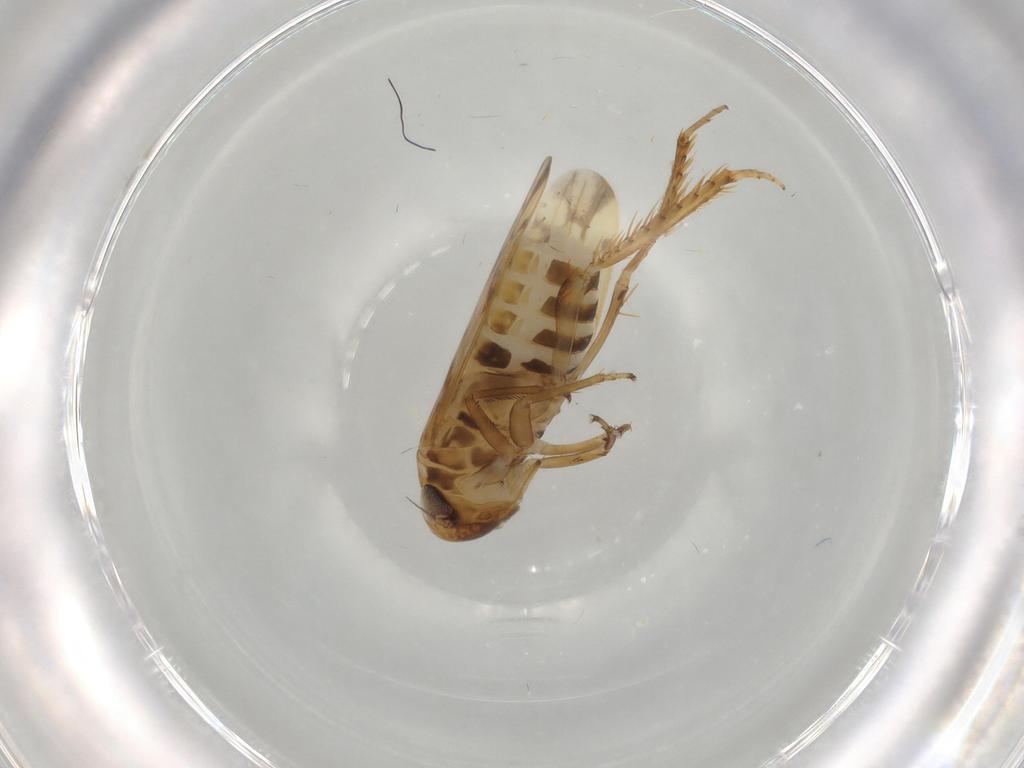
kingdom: Animalia
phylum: Arthropoda
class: Insecta
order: Hemiptera
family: Cicadellidae
